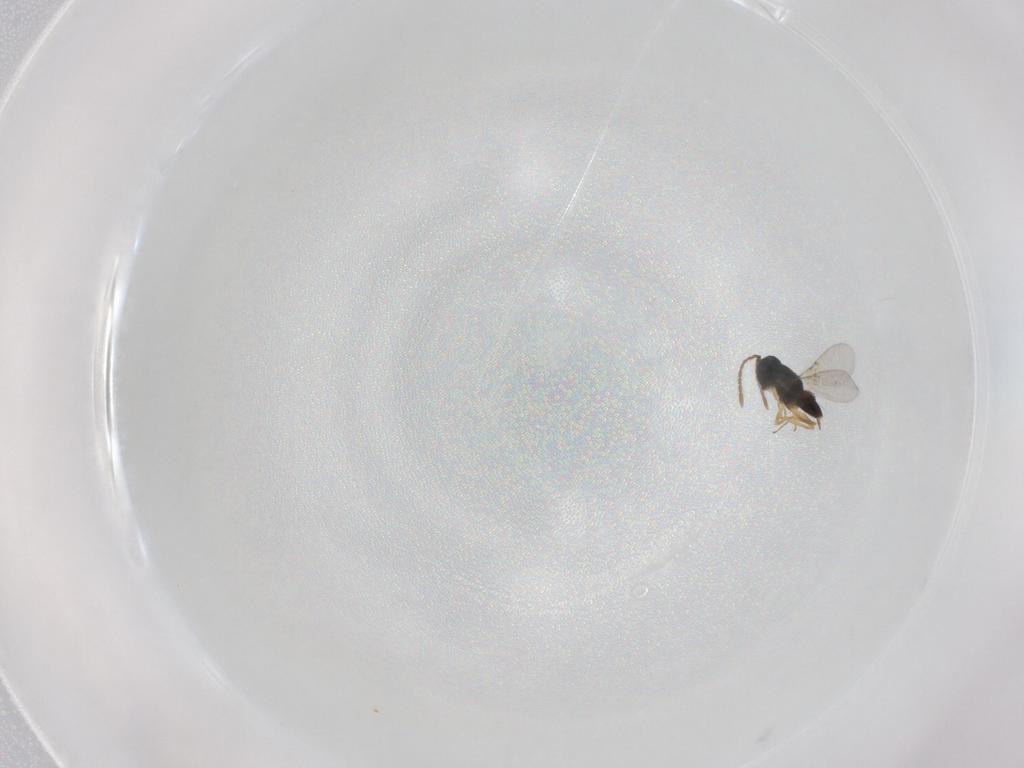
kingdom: Animalia
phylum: Arthropoda
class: Insecta
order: Hymenoptera
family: Encyrtidae
